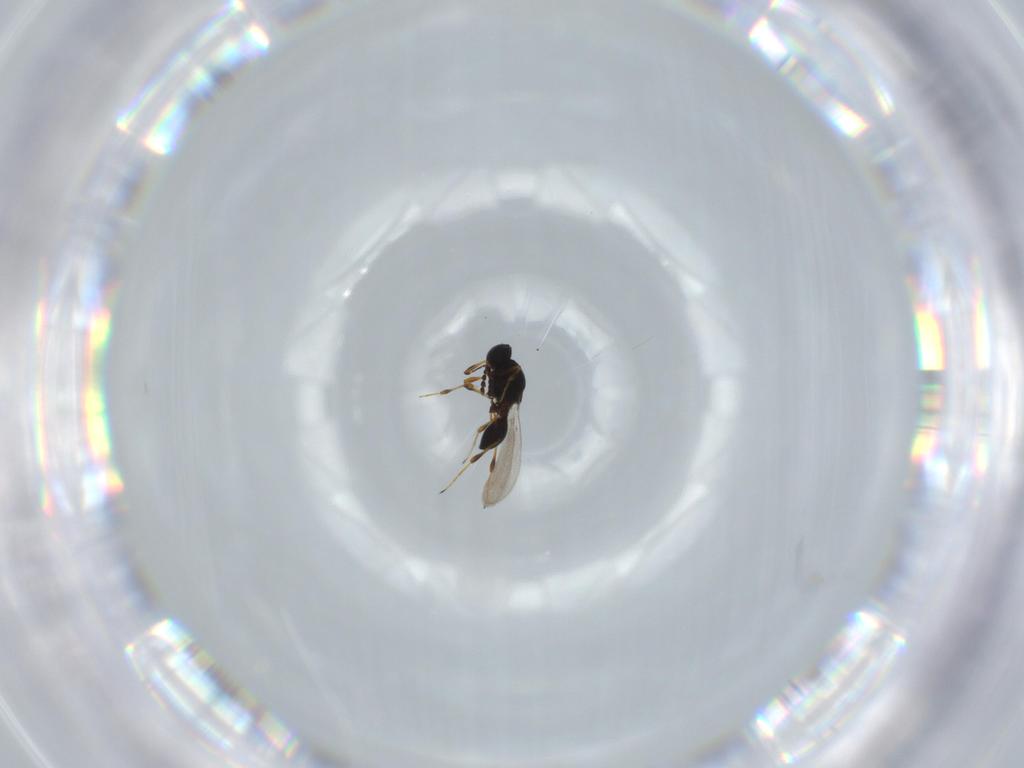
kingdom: Animalia
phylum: Arthropoda
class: Insecta
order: Hymenoptera
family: Platygastridae
